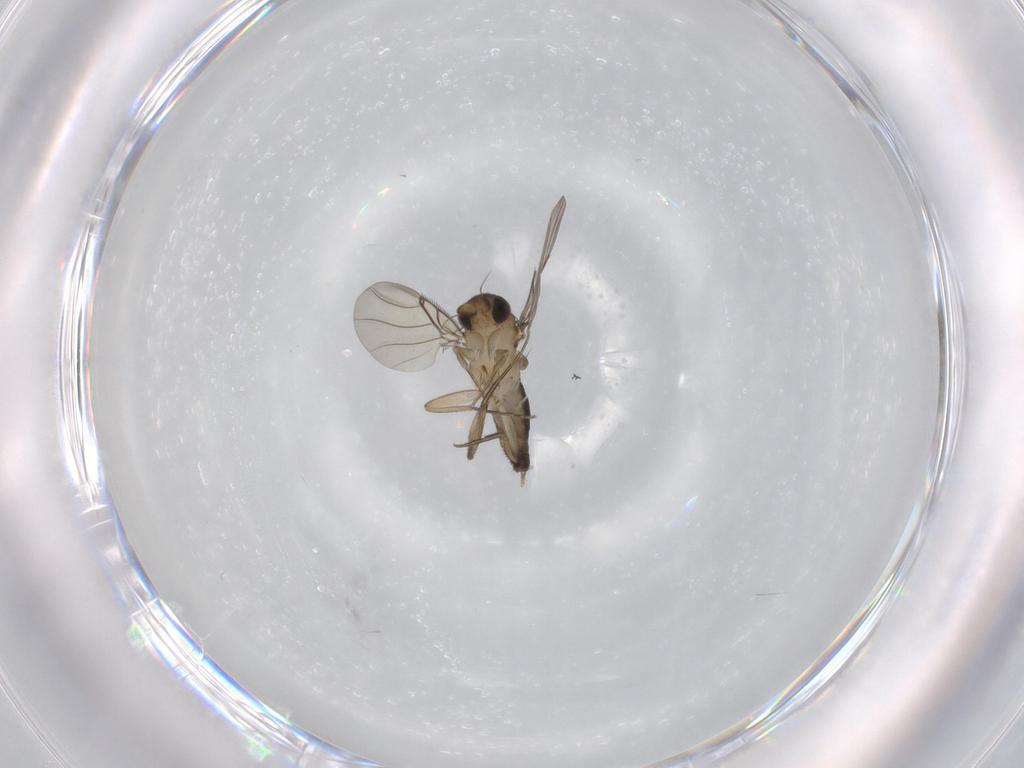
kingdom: Animalia
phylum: Arthropoda
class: Insecta
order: Diptera
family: Phoridae
